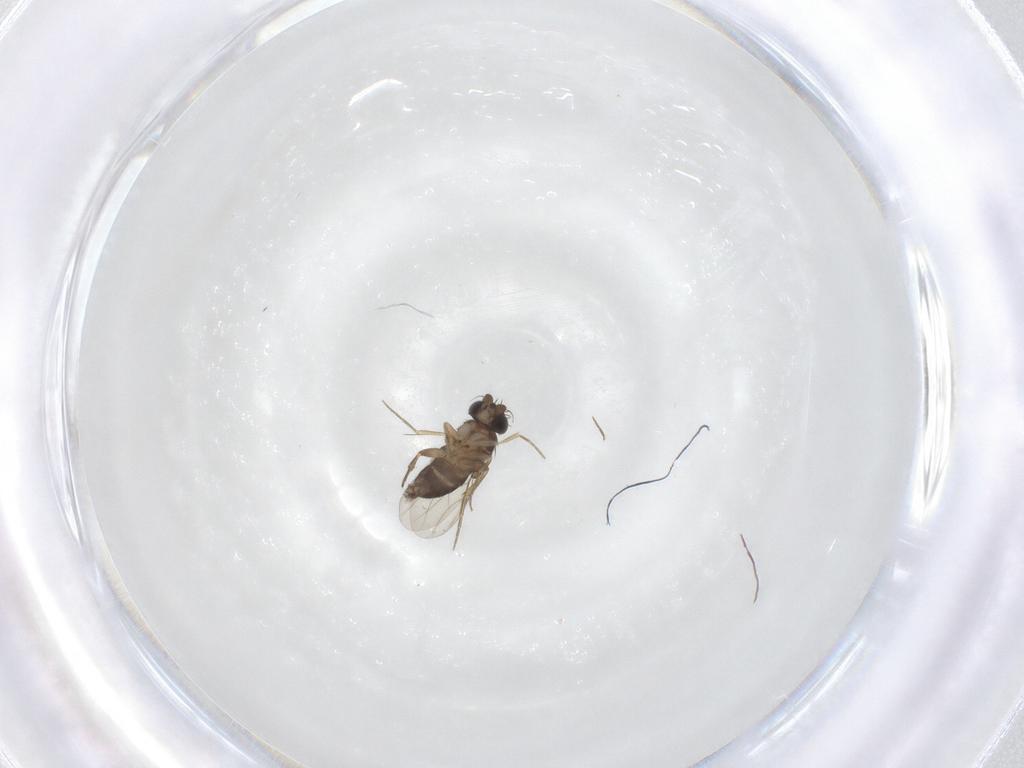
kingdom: Animalia
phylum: Arthropoda
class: Insecta
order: Diptera
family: Phoridae
